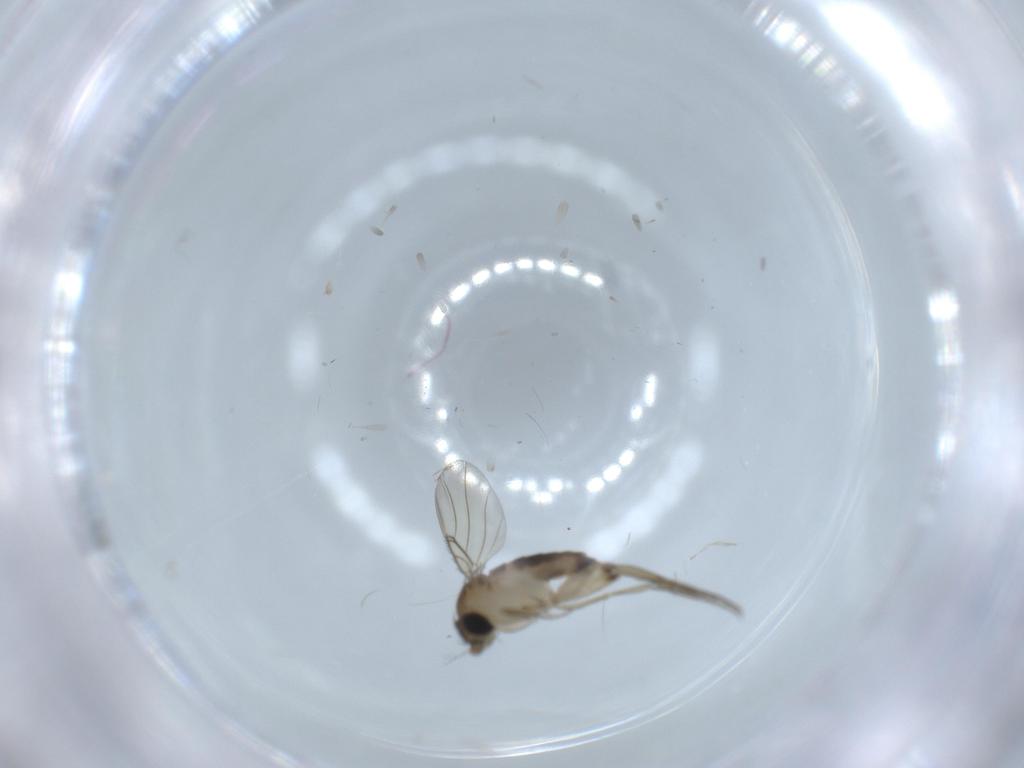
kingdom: Animalia
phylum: Arthropoda
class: Insecta
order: Diptera
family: Phoridae
